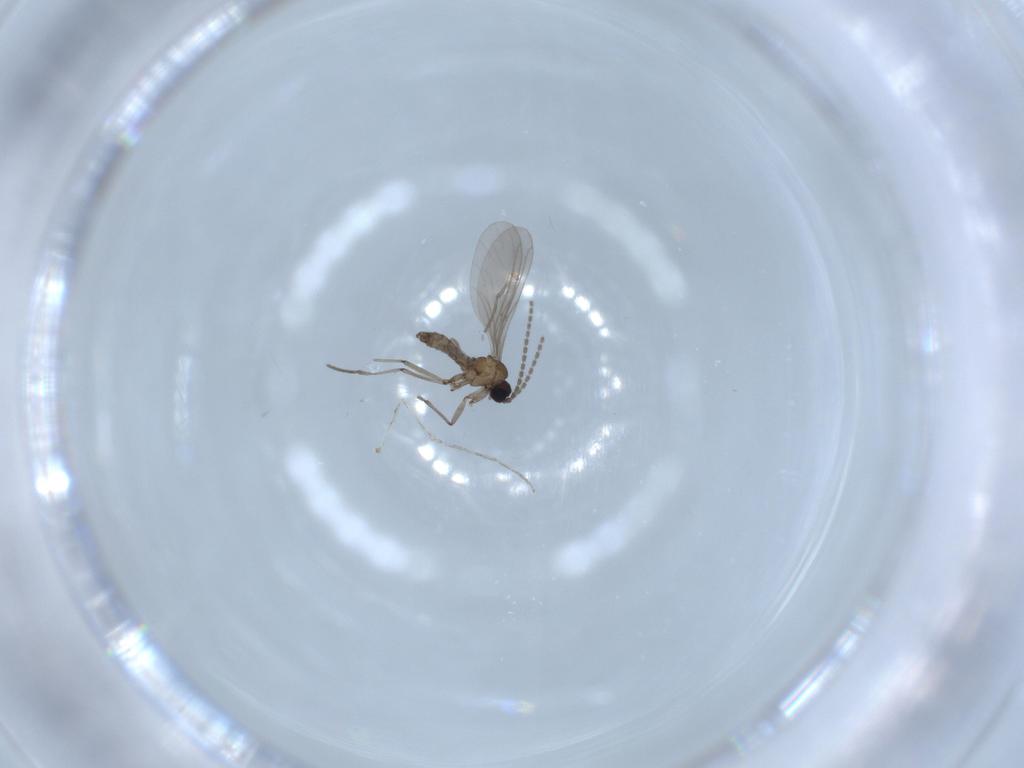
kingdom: Animalia
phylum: Arthropoda
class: Insecta
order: Diptera
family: Sciaridae
